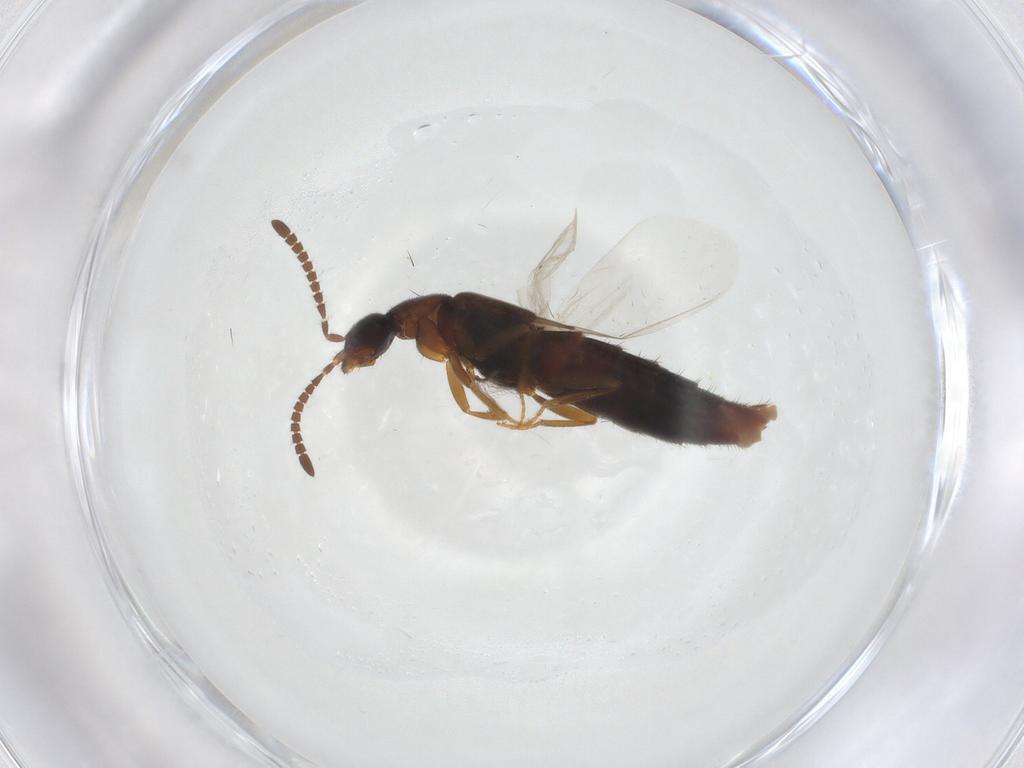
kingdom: Animalia
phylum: Arthropoda
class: Insecta
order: Coleoptera
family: Staphylinidae
